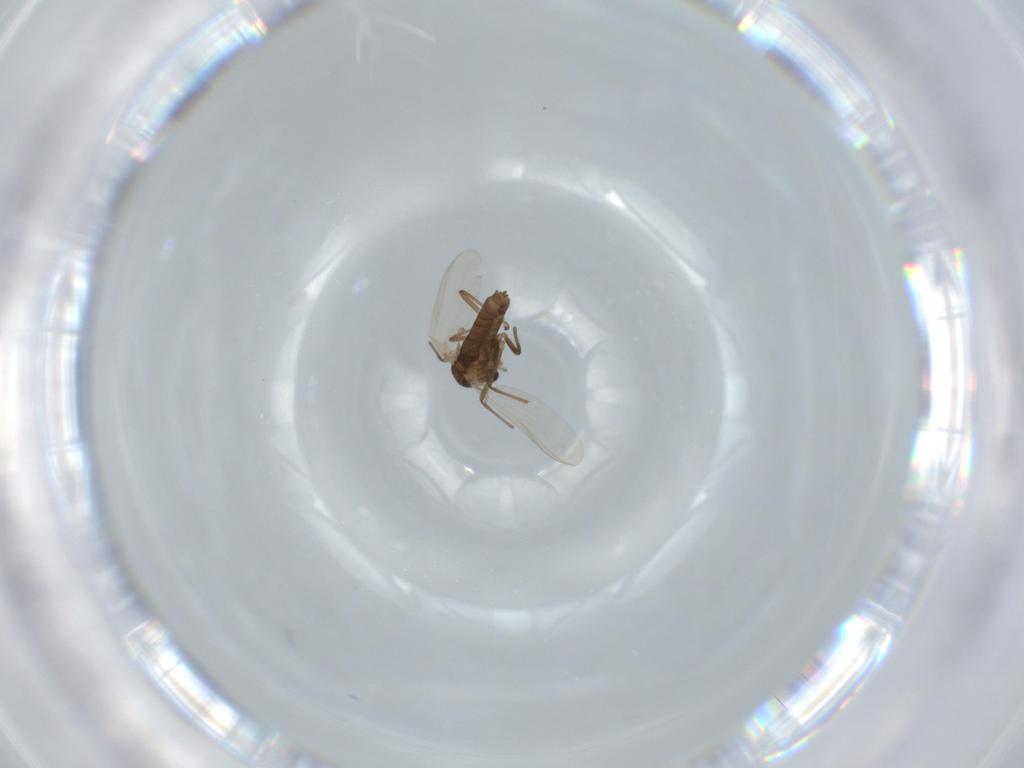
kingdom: Animalia
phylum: Arthropoda
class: Insecta
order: Diptera
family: Chironomidae
